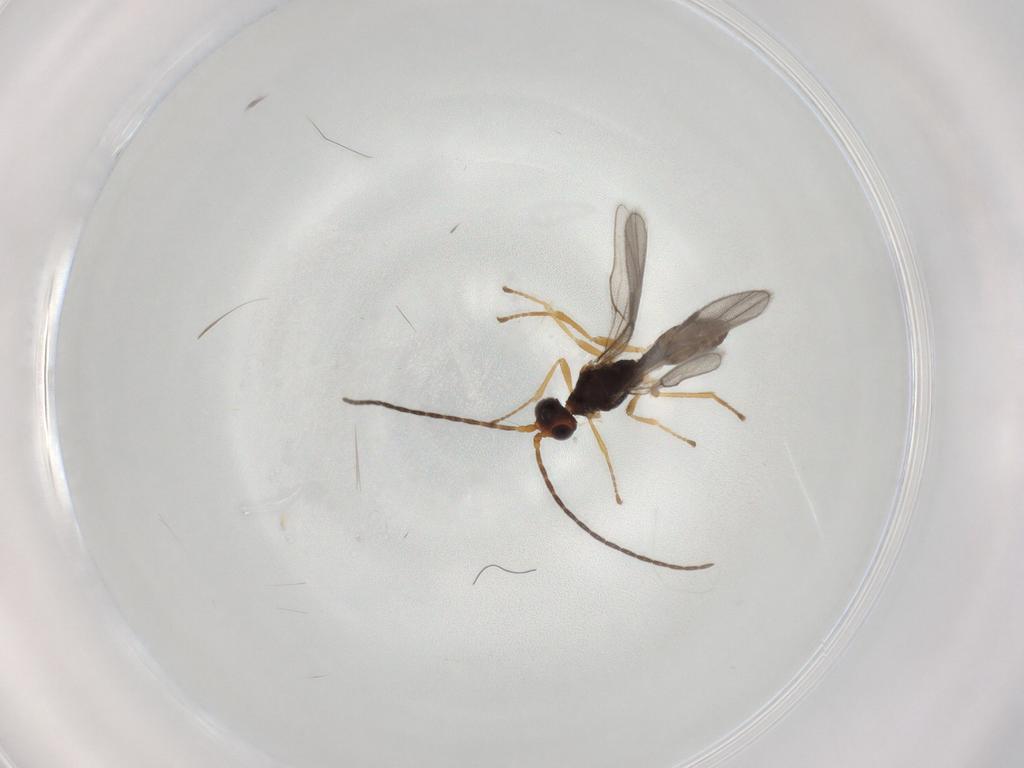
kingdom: Animalia
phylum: Arthropoda
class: Insecta
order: Hymenoptera
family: Braconidae
